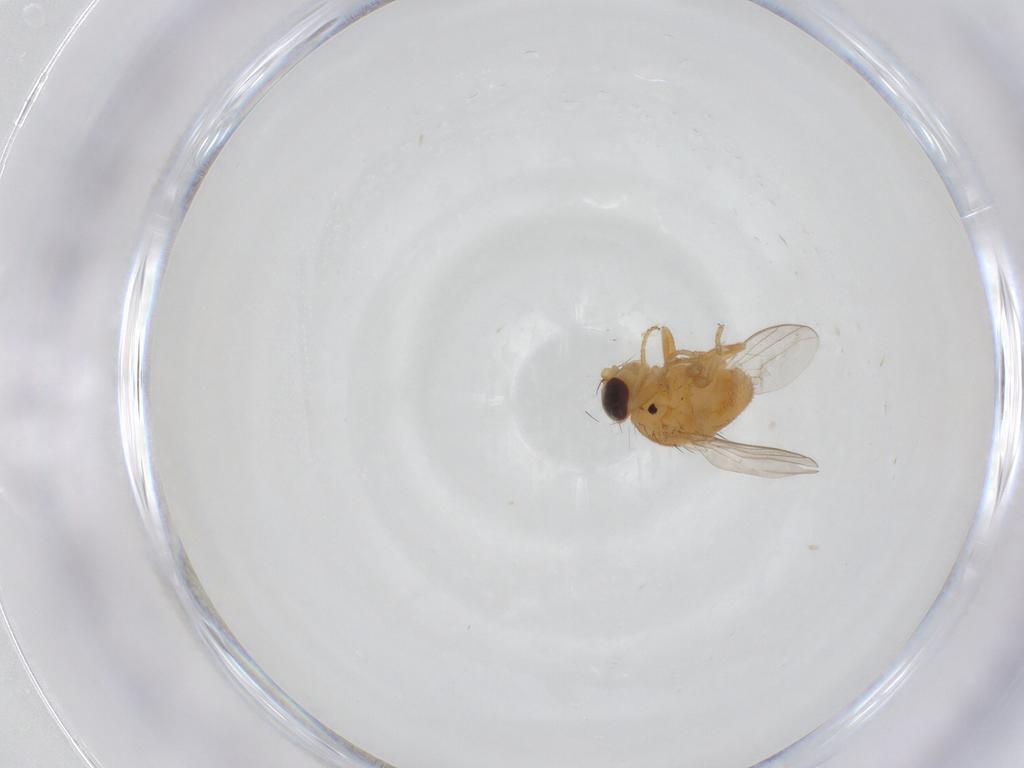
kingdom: Animalia
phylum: Arthropoda
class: Insecta
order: Diptera
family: Chloropidae
